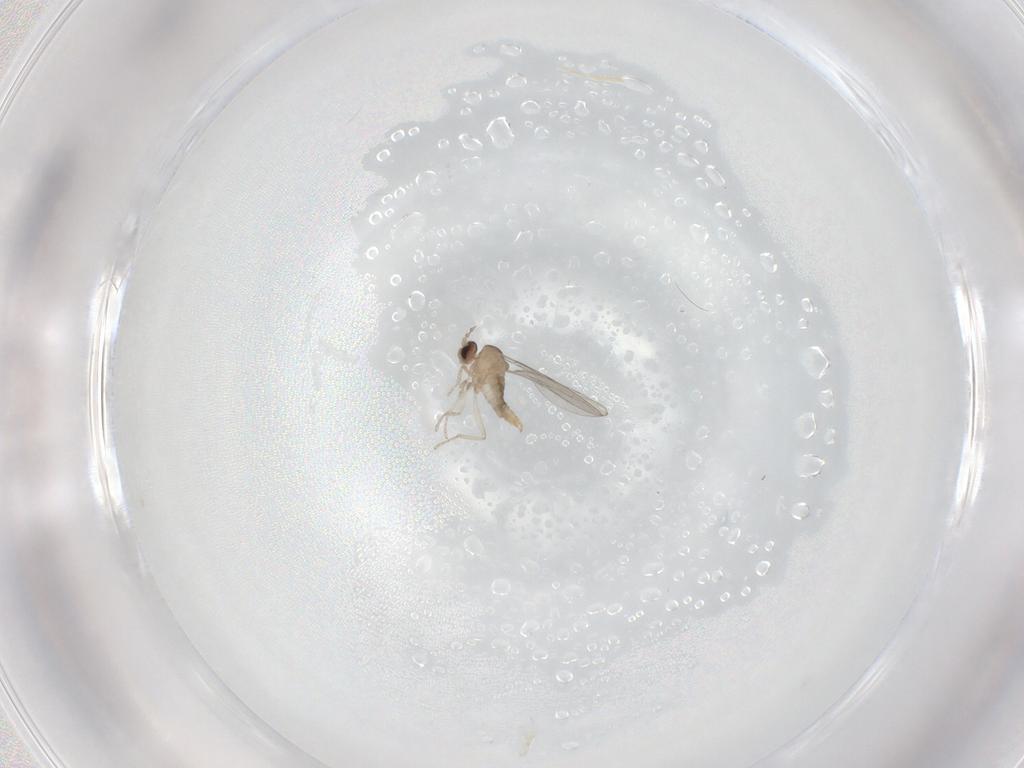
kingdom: Animalia
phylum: Arthropoda
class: Insecta
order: Diptera
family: Cecidomyiidae
